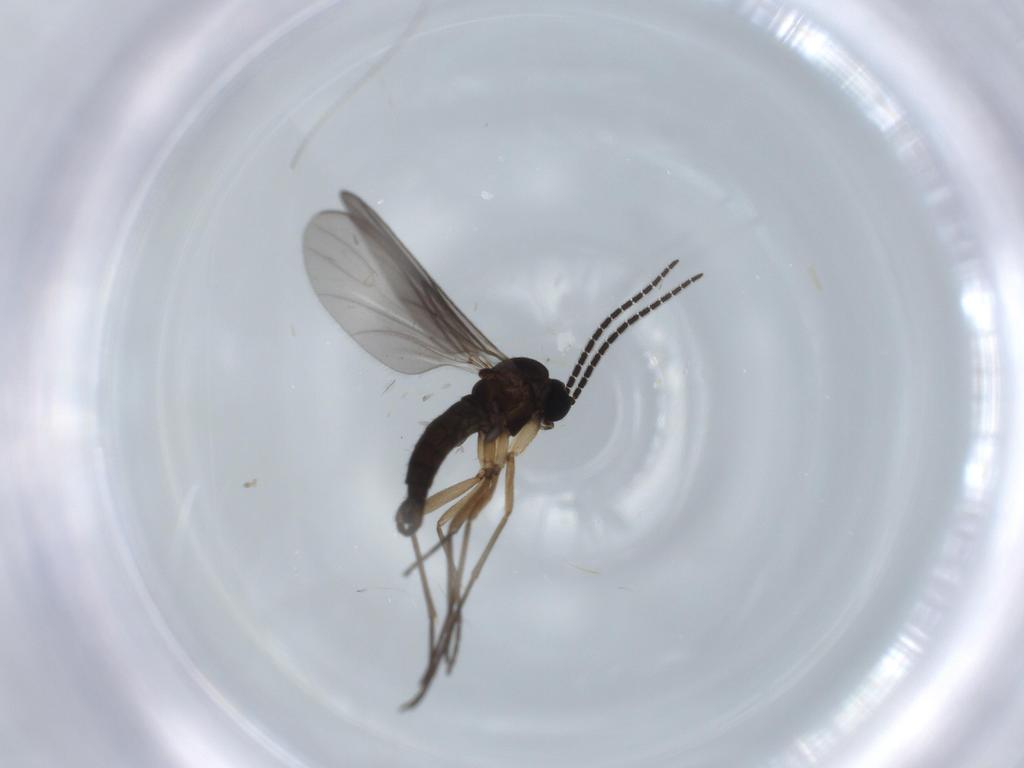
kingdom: Animalia
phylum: Arthropoda
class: Insecta
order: Diptera
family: Sciaridae
